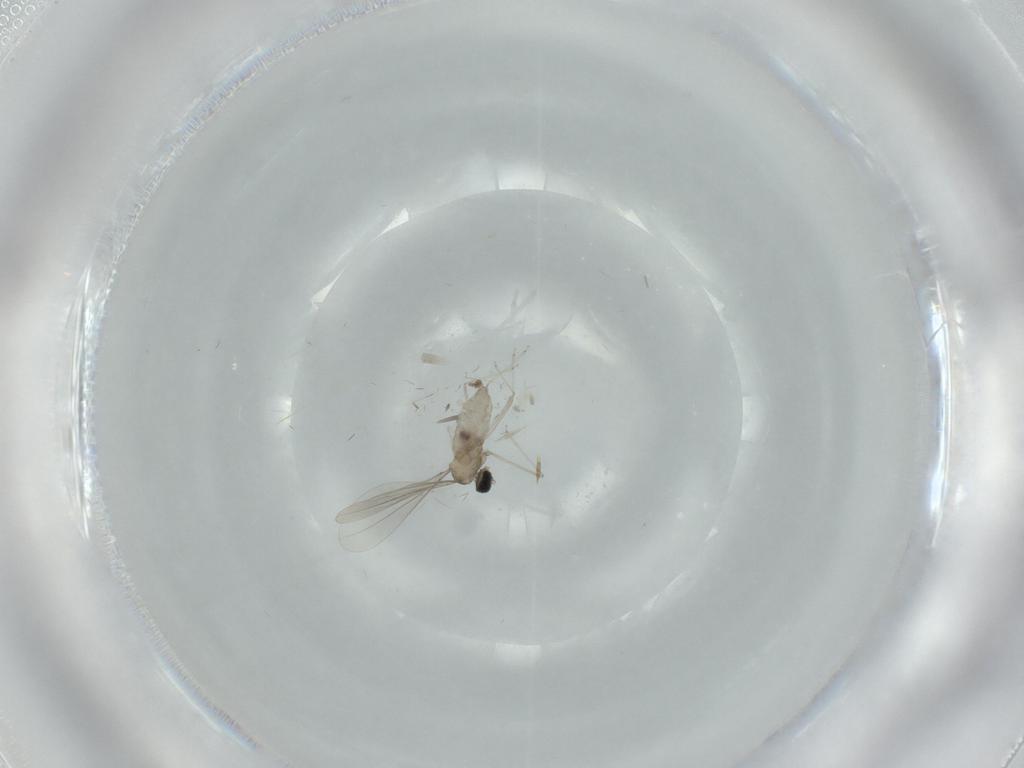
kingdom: Animalia
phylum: Arthropoda
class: Insecta
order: Diptera
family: Cecidomyiidae
